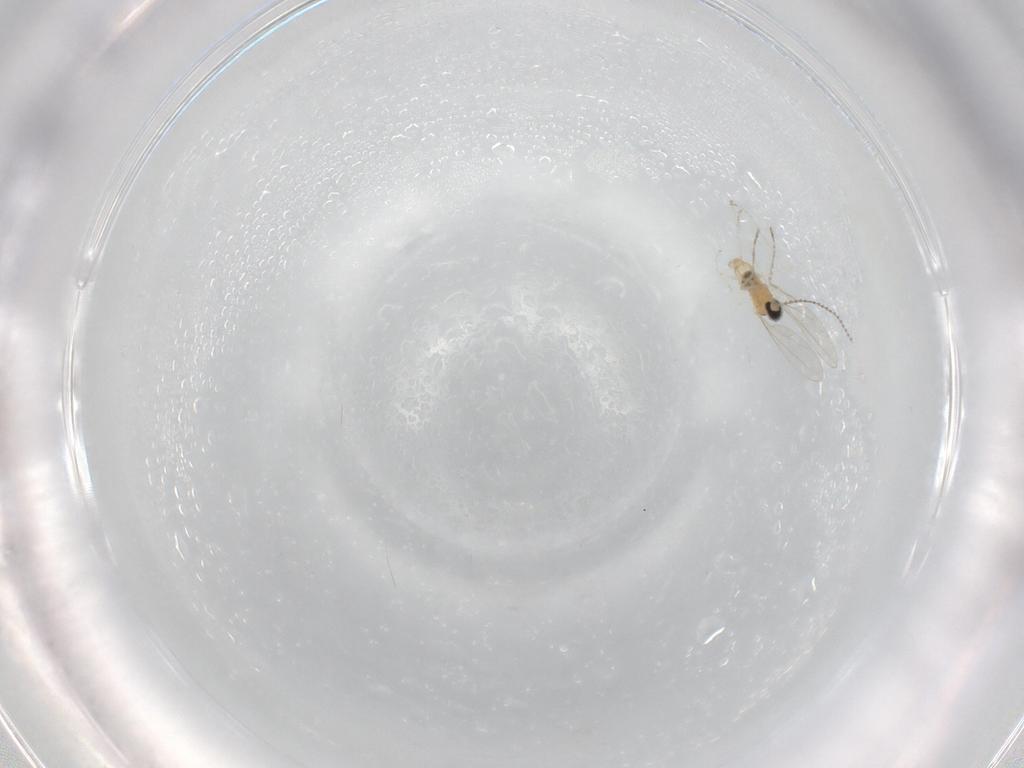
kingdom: Animalia
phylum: Arthropoda
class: Insecta
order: Diptera
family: Cecidomyiidae
